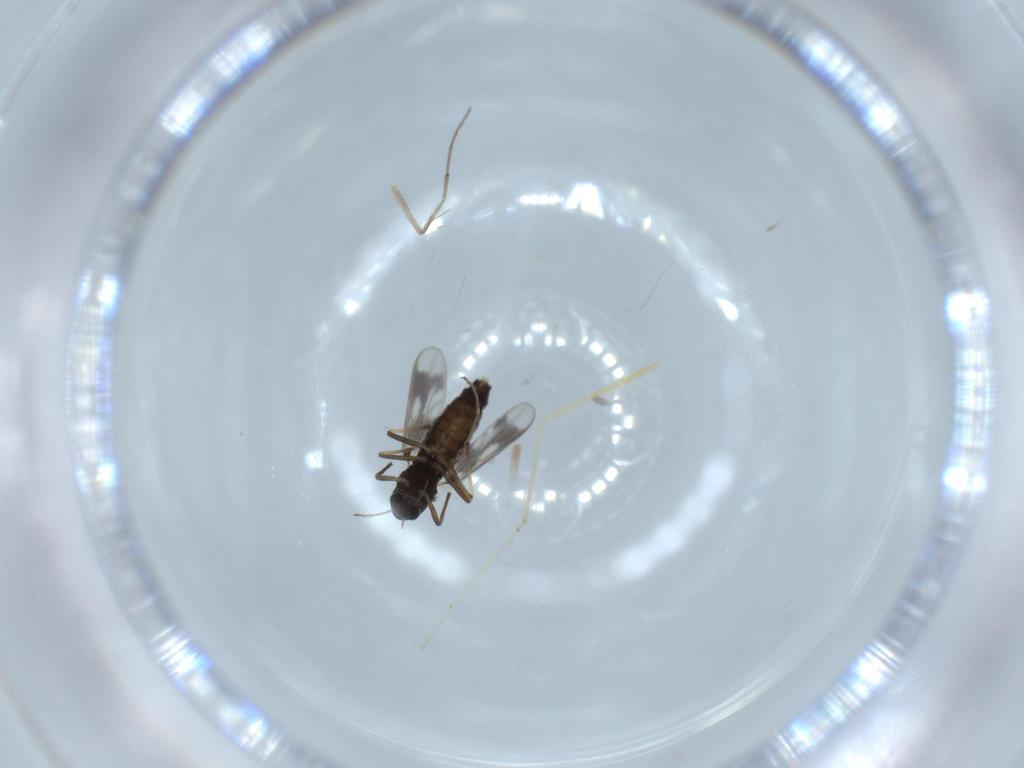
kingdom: Animalia
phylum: Arthropoda
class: Insecta
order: Diptera
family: Chironomidae
